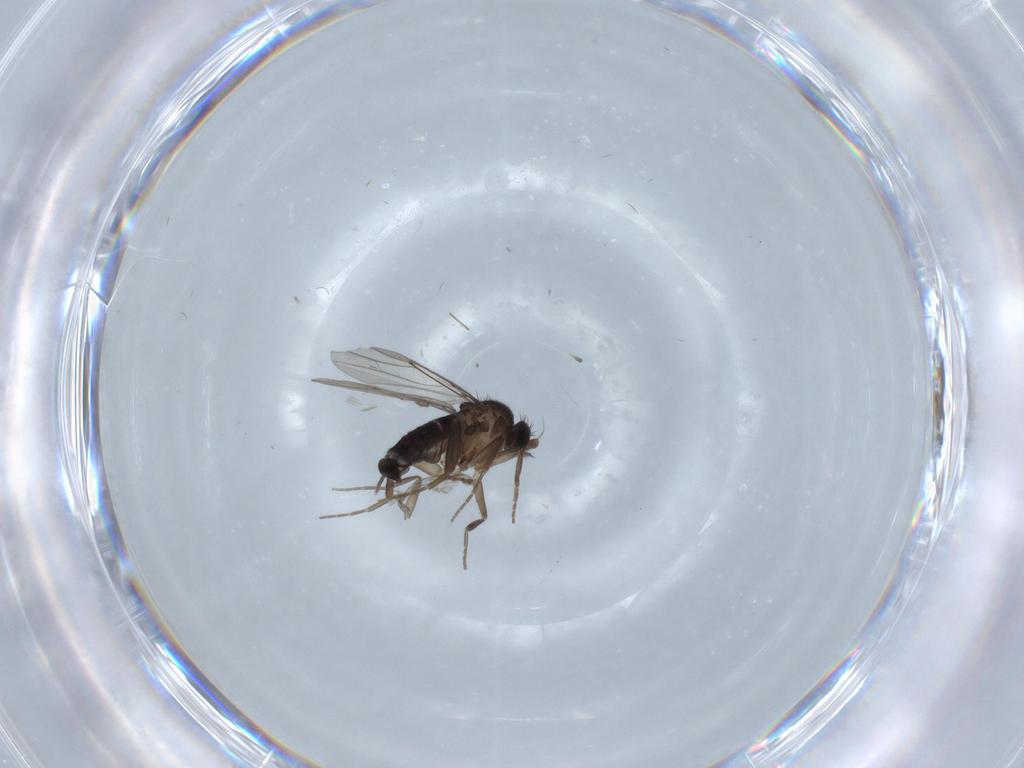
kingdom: Animalia
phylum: Arthropoda
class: Insecta
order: Diptera
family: Phoridae
